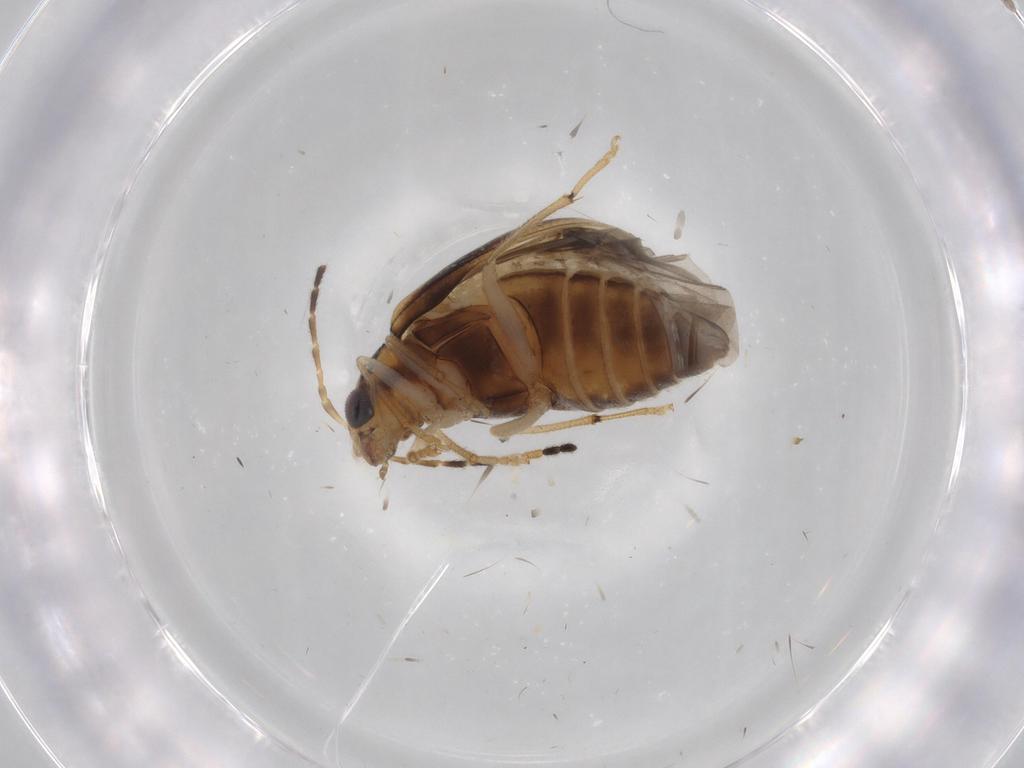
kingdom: Animalia
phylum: Arthropoda
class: Insecta
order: Coleoptera
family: Chrysomelidae
